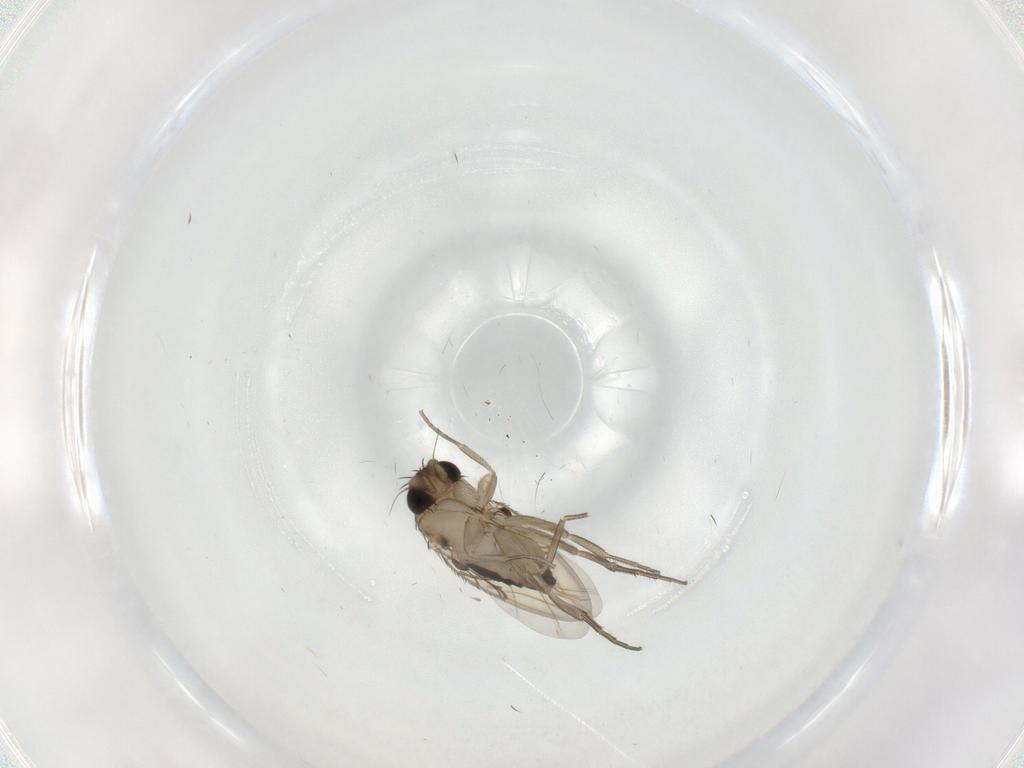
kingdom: Animalia
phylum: Arthropoda
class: Insecta
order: Diptera
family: Phoridae
